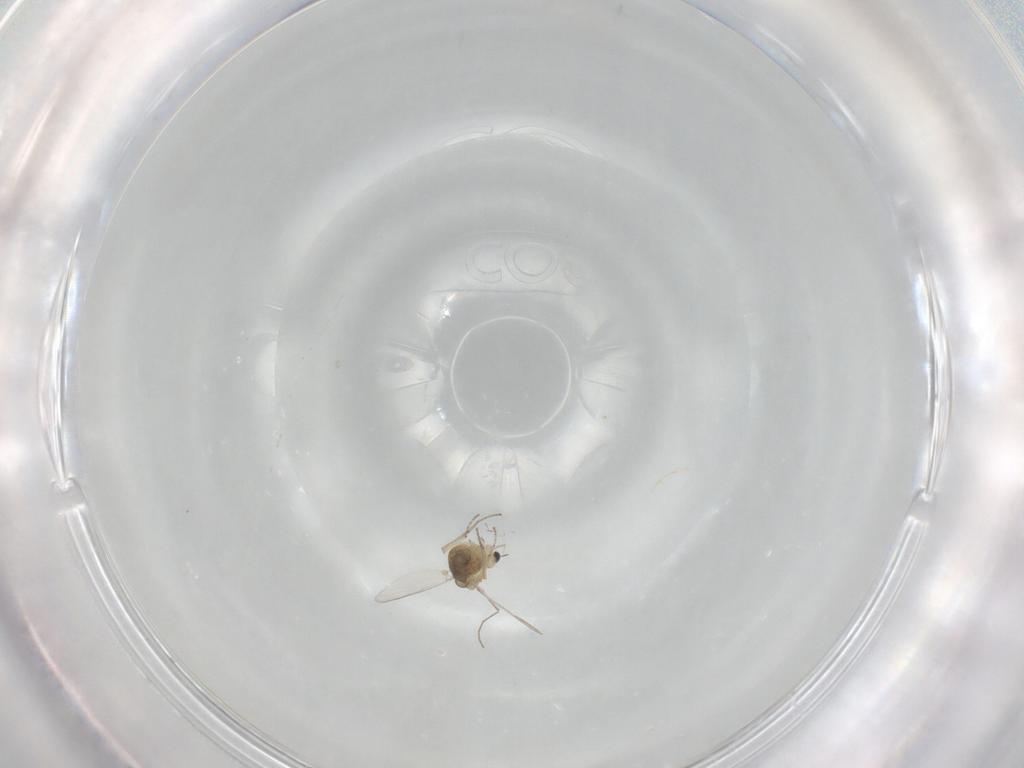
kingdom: Animalia
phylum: Arthropoda
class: Insecta
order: Diptera
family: Chironomidae
